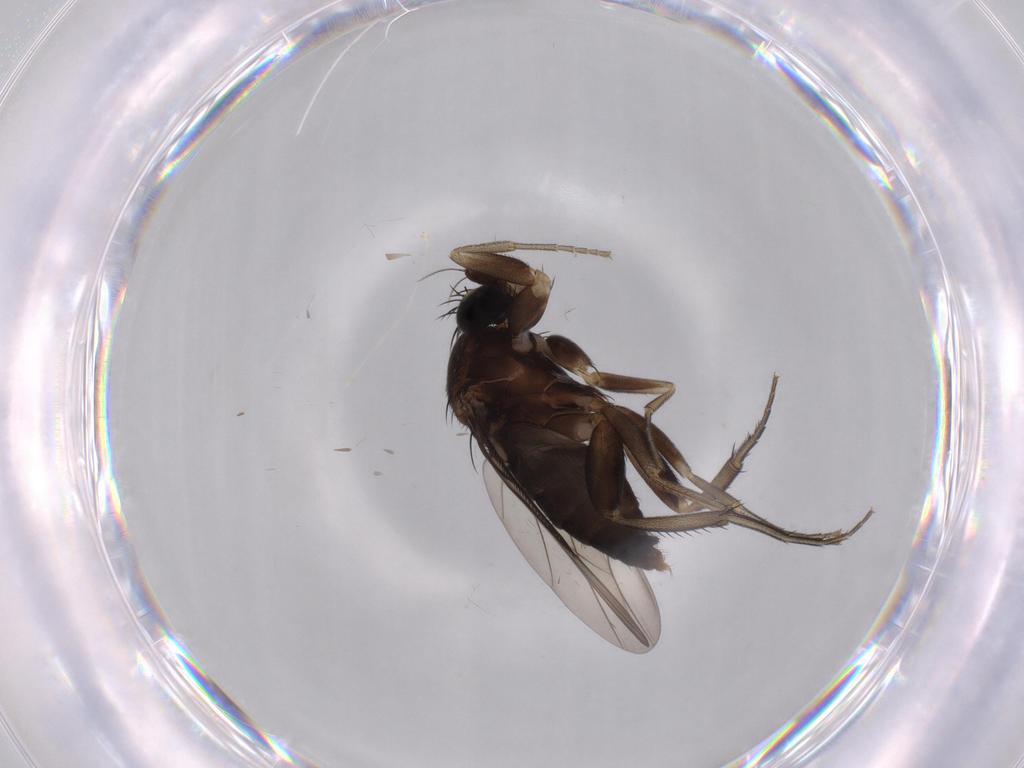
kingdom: Animalia
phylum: Arthropoda
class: Insecta
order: Diptera
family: Phoridae
